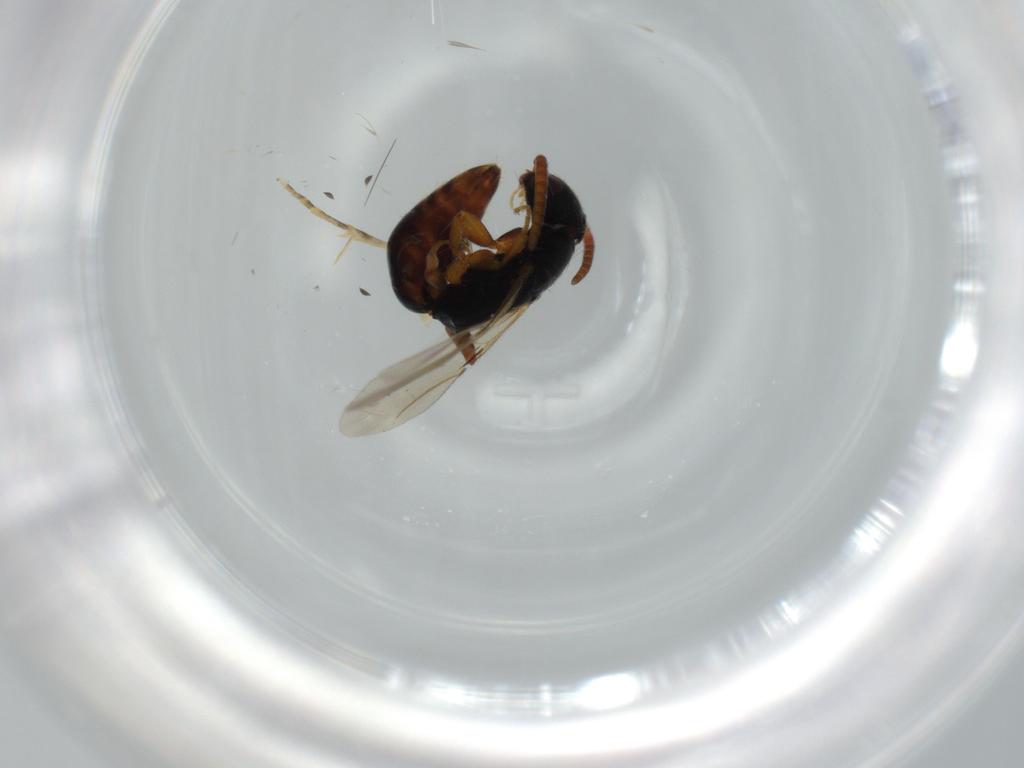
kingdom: Animalia
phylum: Arthropoda
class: Insecta
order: Hymenoptera
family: Bethylidae
